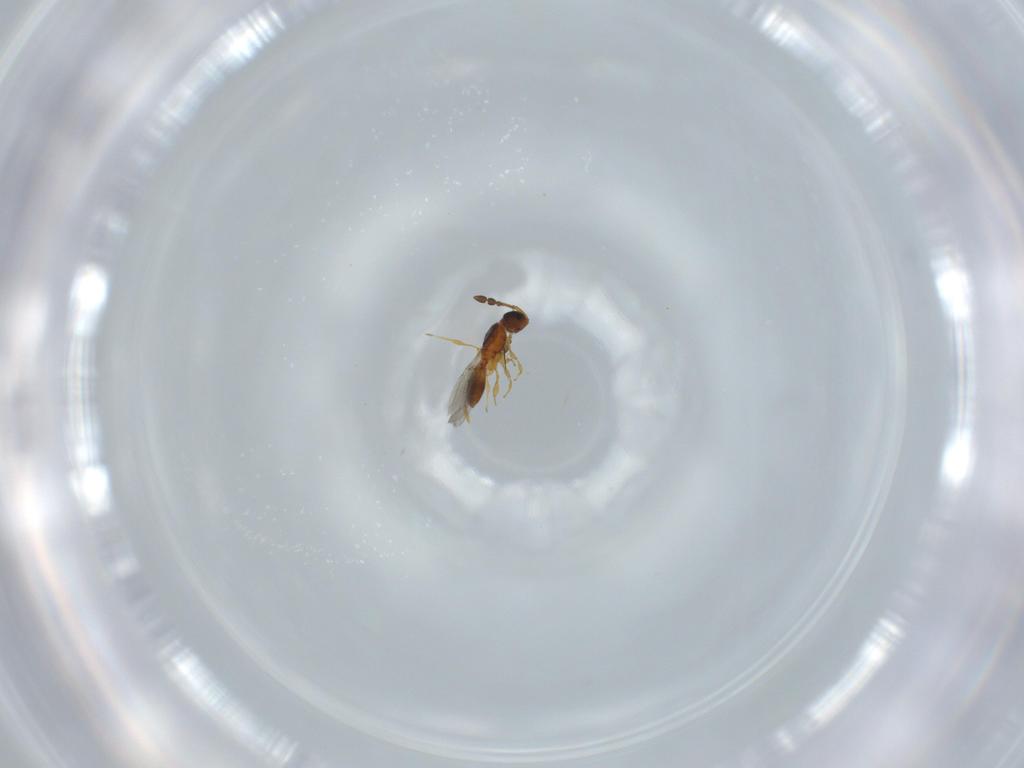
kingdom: Animalia
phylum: Arthropoda
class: Insecta
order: Hymenoptera
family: Diapriidae
